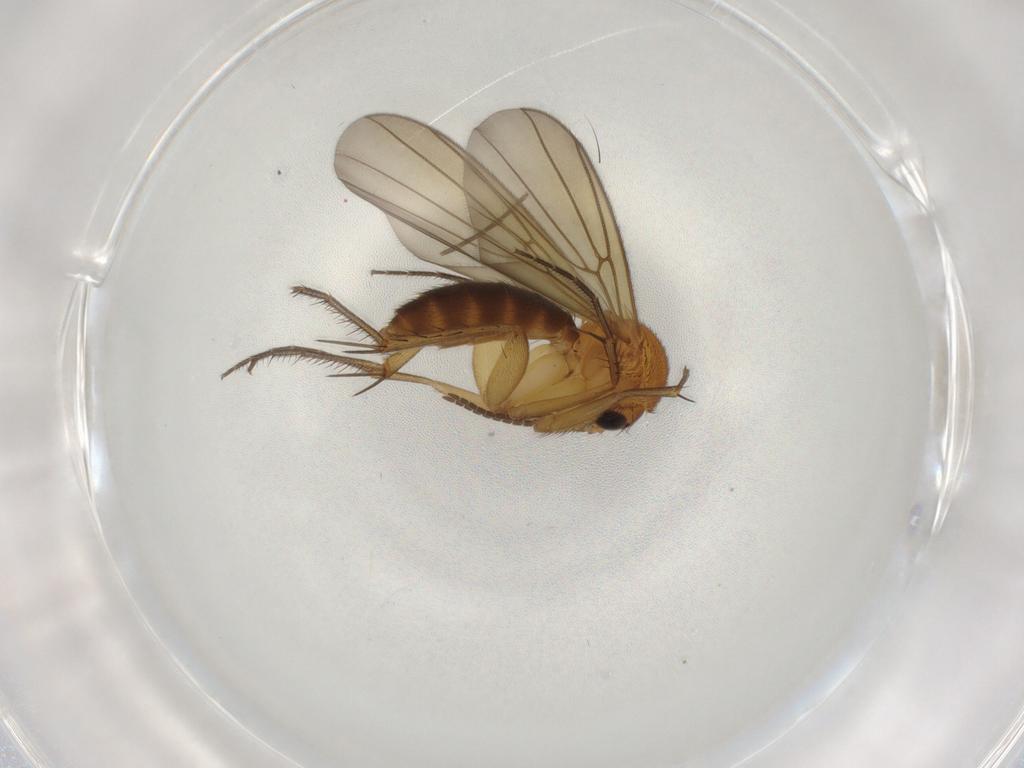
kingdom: Animalia
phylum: Arthropoda
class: Insecta
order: Diptera
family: Mycetophilidae
